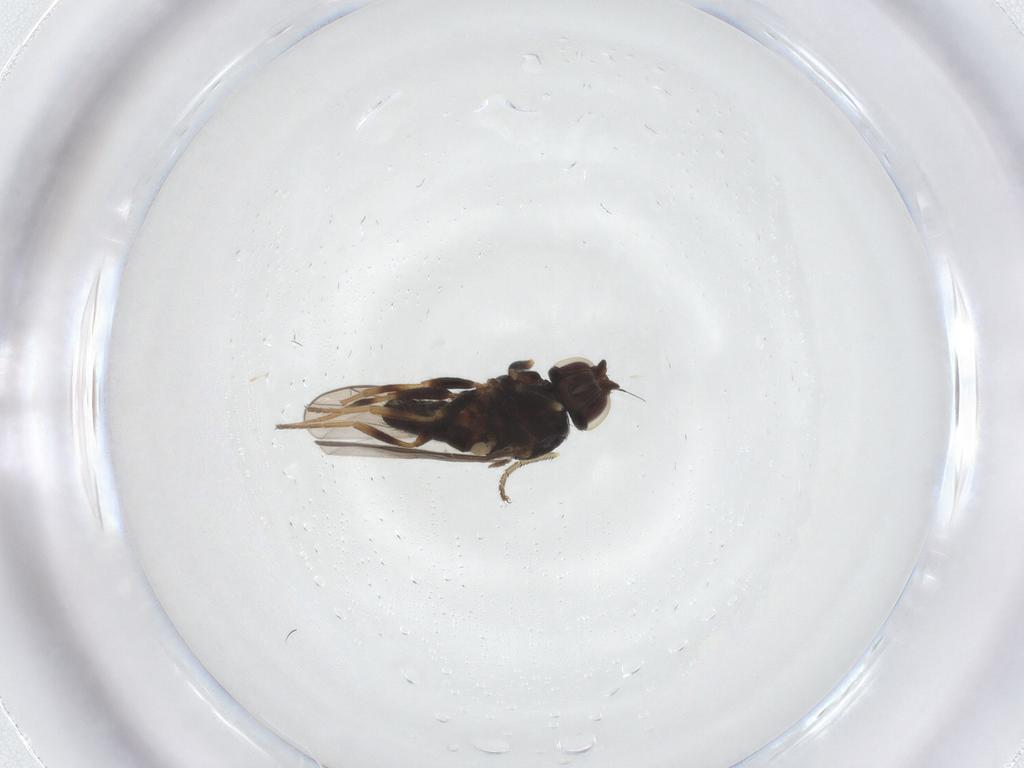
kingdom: Animalia
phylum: Arthropoda
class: Insecta
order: Diptera
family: Chloropidae
